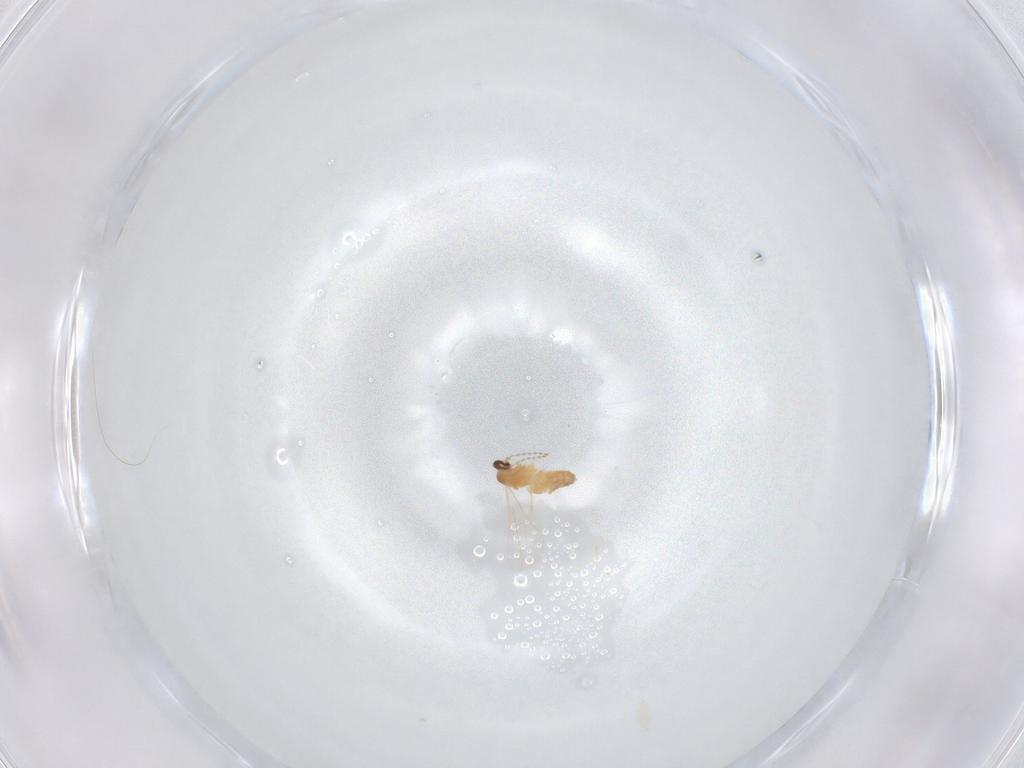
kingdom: Animalia
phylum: Arthropoda
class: Insecta
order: Diptera
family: Cecidomyiidae
